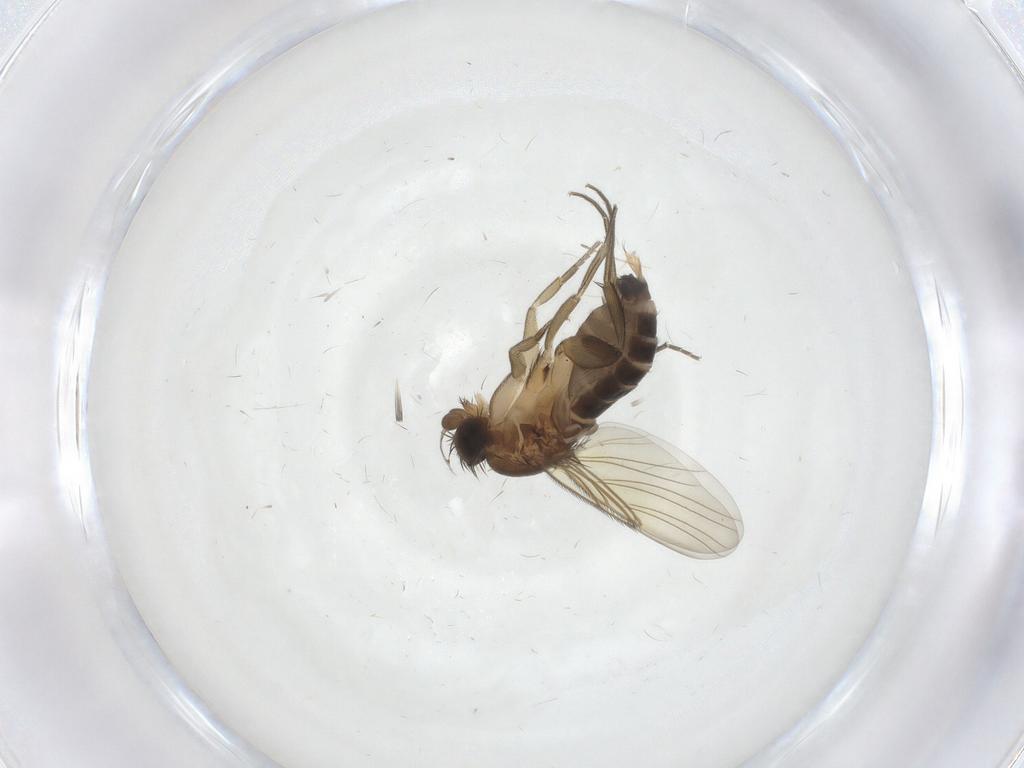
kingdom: Animalia
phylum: Arthropoda
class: Insecta
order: Diptera
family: Phoridae
